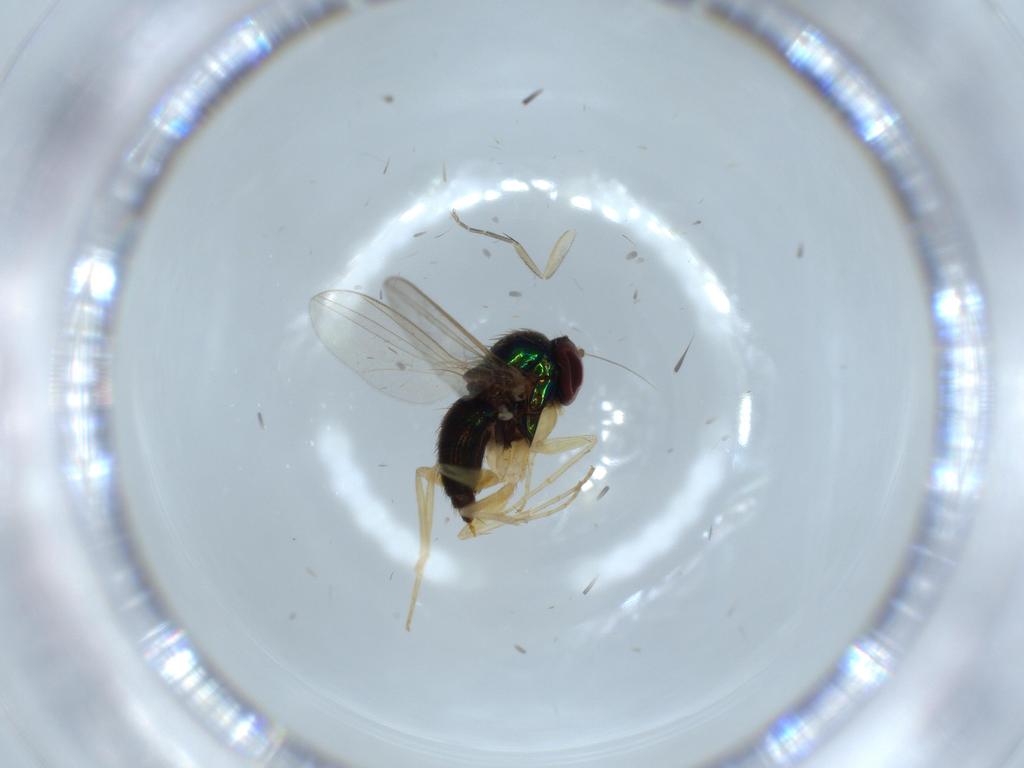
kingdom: Animalia
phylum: Arthropoda
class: Insecta
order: Diptera
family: Dolichopodidae
